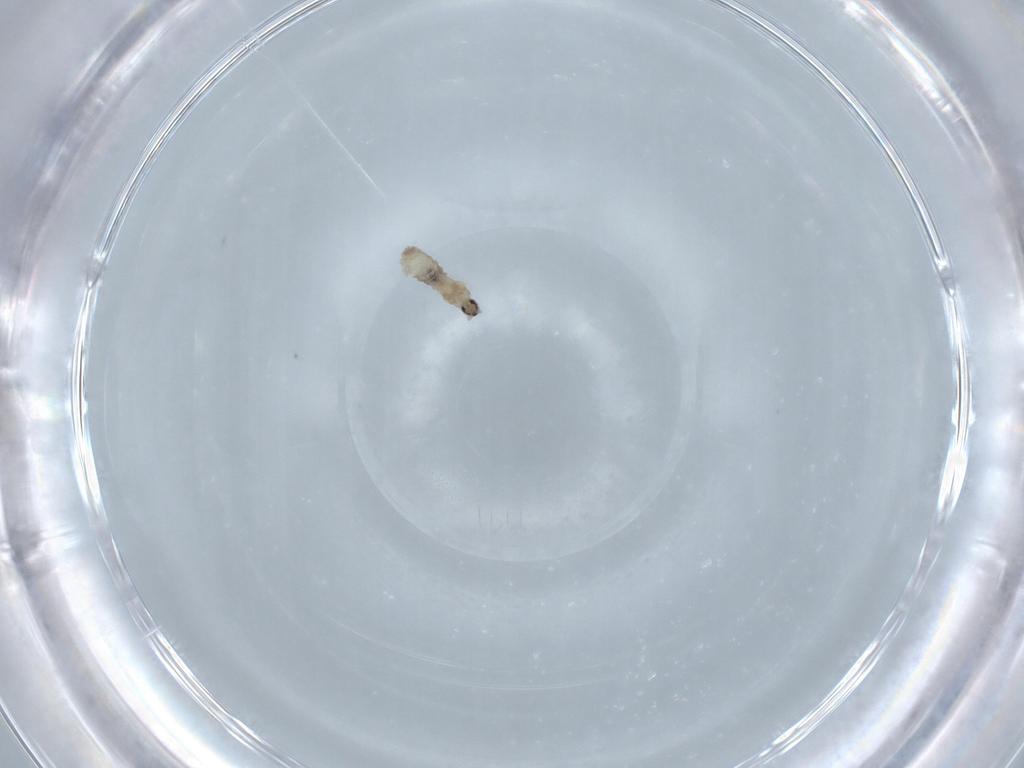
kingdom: Animalia
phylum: Arthropoda
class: Insecta
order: Diptera
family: Cecidomyiidae
